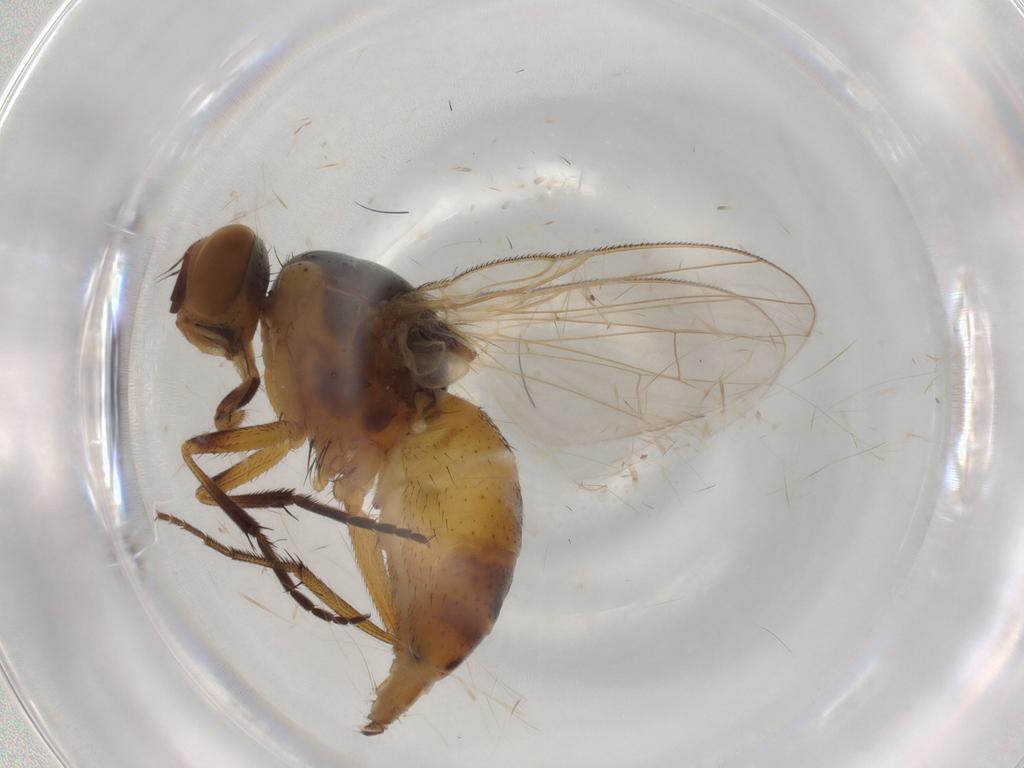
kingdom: Animalia
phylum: Arthropoda
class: Insecta
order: Diptera
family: Muscidae
